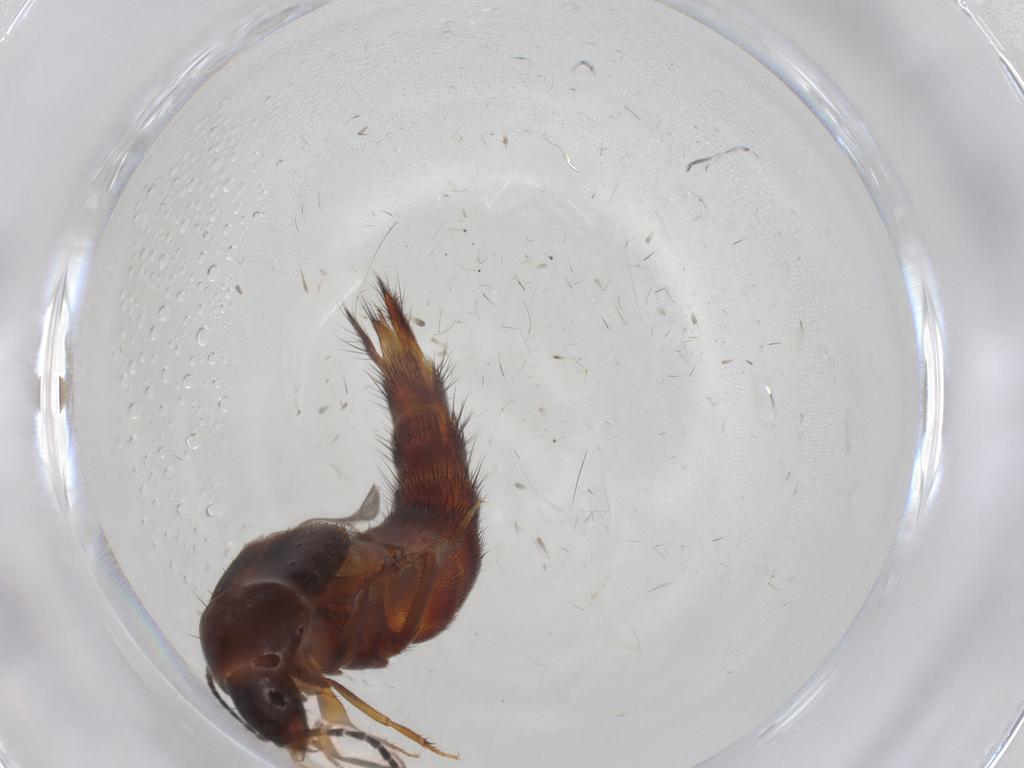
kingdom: Animalia
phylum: Arthropoda
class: Insecta
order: Coleoptera
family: Staphylinidae
